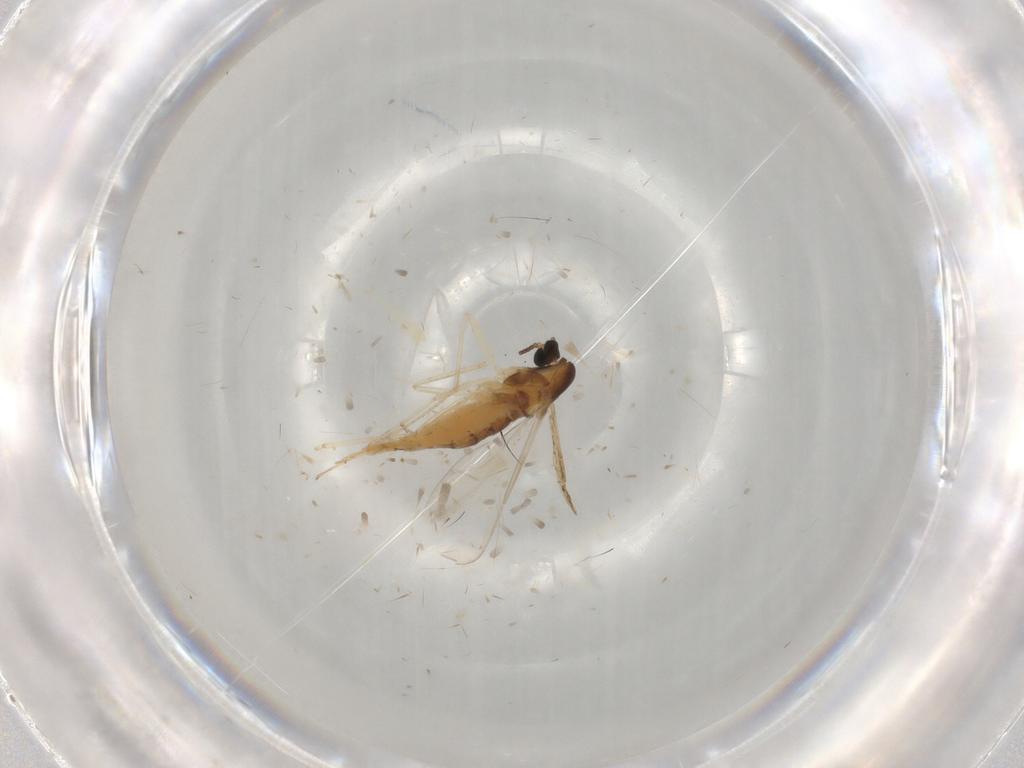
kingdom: Animalia
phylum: Arthropoda
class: Insecta
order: Diptera
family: Cecidomyiidae
